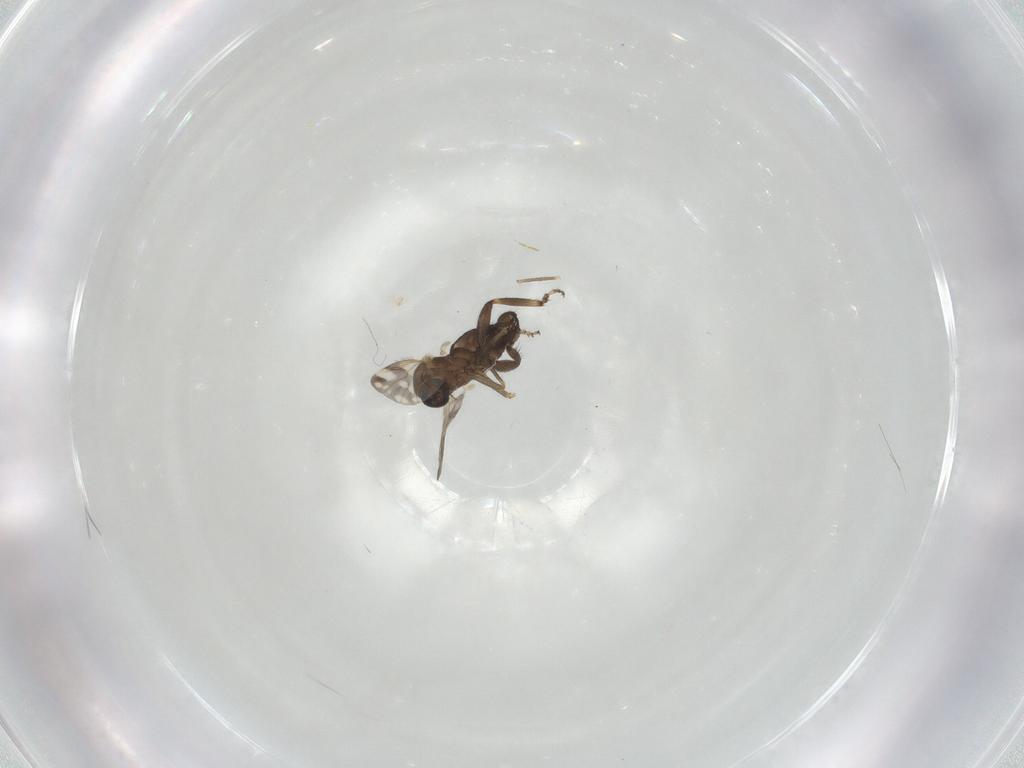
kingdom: Animalia
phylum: Arthropoda
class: Insecta
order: Diptera
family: Ceratopogonidae
